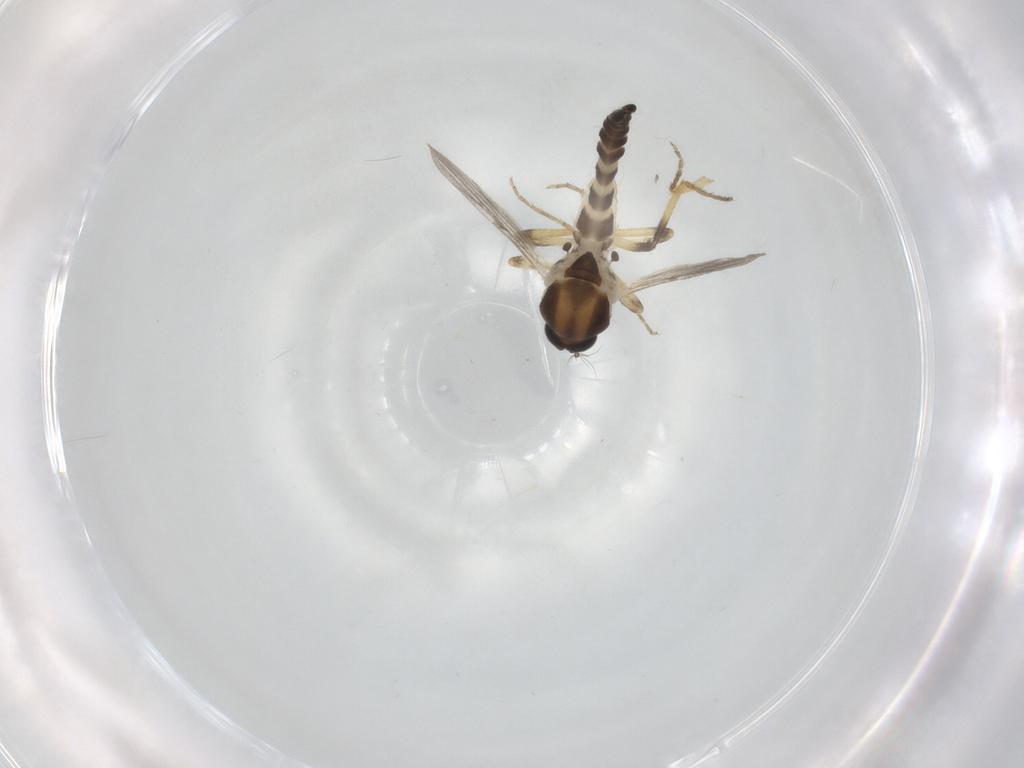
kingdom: Animalia
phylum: Arthropoda
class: Insecta
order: Diptera
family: Ceratopogonidae
